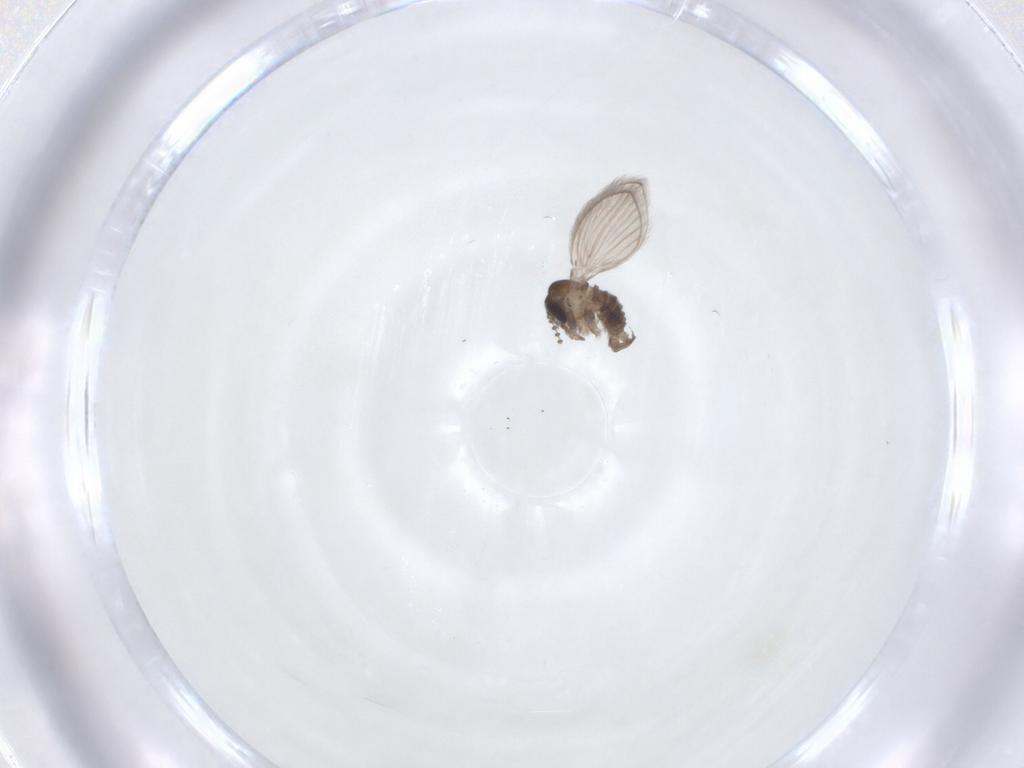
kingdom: Animalia
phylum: Arthropoda
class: Insecta
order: Diptera
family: Psychodidae
